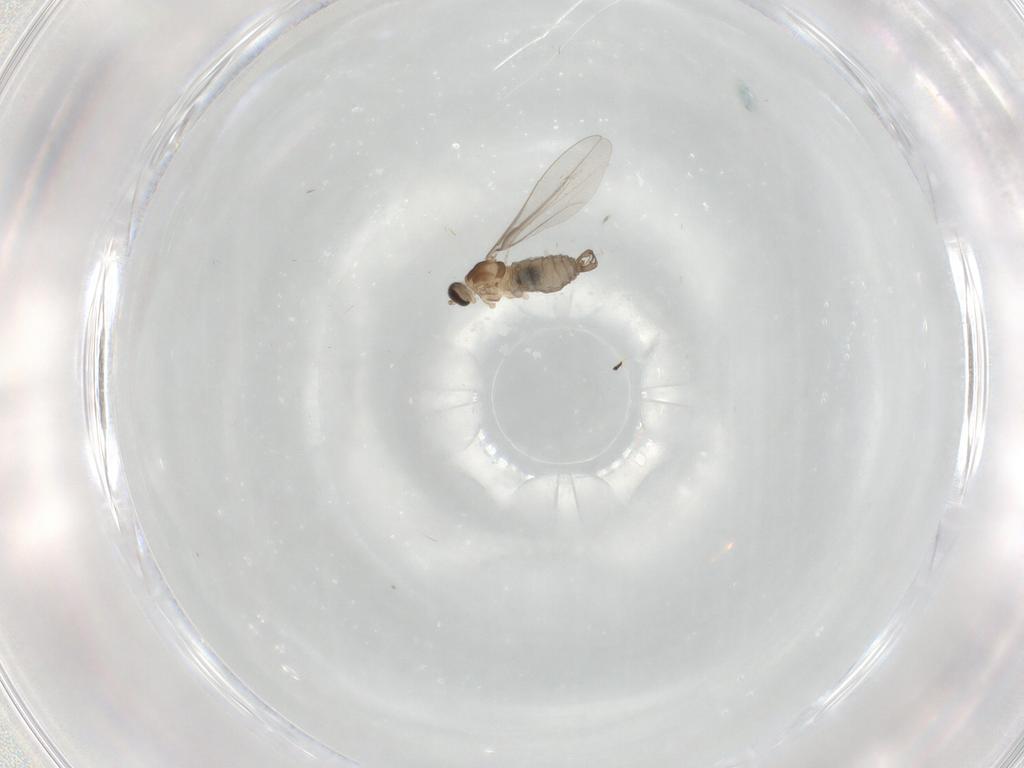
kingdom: Animalia
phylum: Arthropoda
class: Insecta
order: Diptera
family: Cecidomyiidae
